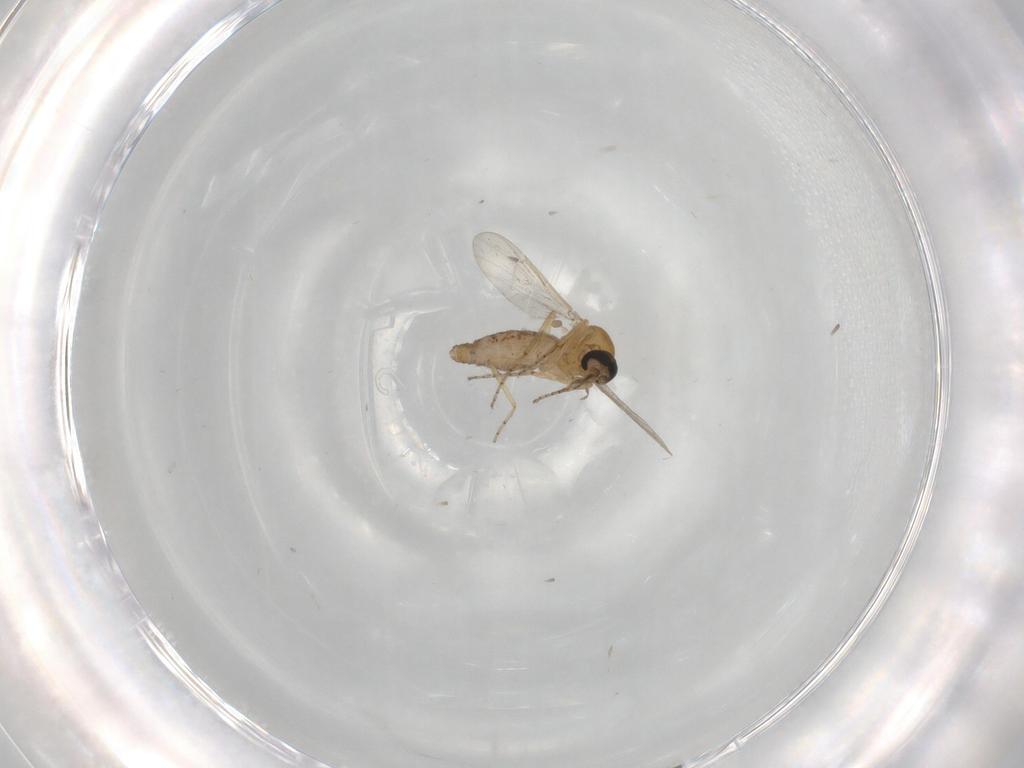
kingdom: Animalia
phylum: Arthropoda
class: Insecta
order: Diptera
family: Ceratopogonidae
